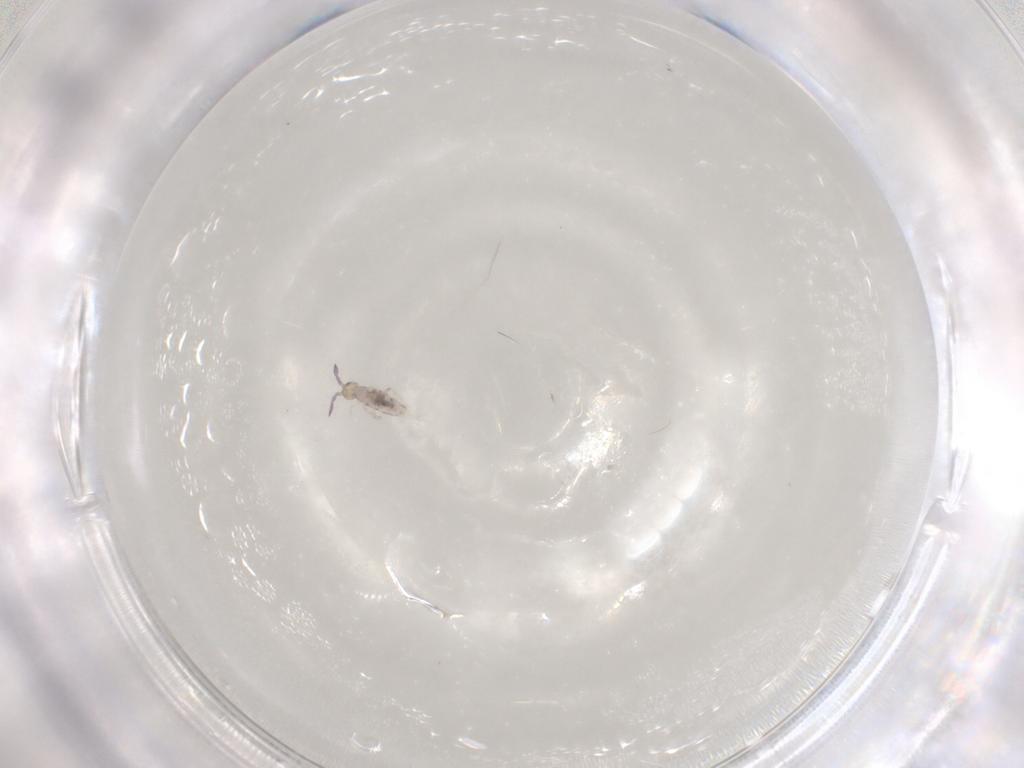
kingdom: Animalia
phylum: Arthropoda
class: Collembola
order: Entomobryomorpha
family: Entomobryidae
